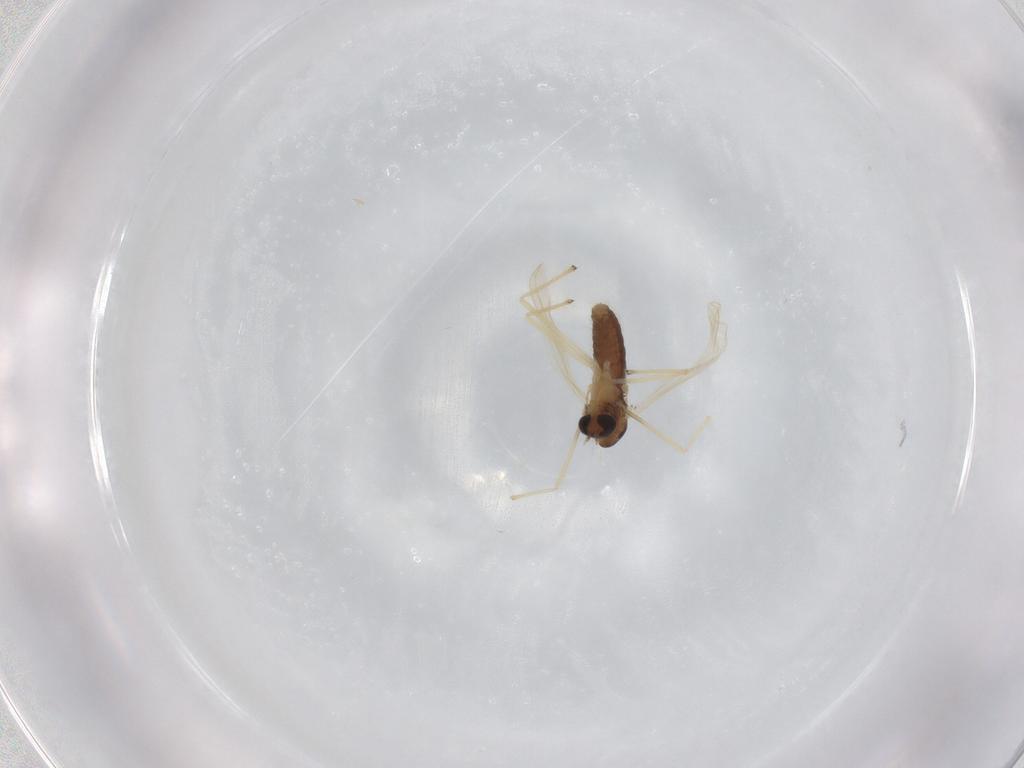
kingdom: Animalia
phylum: Arthropoda
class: Insecta
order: Diptera
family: Chironomidae
